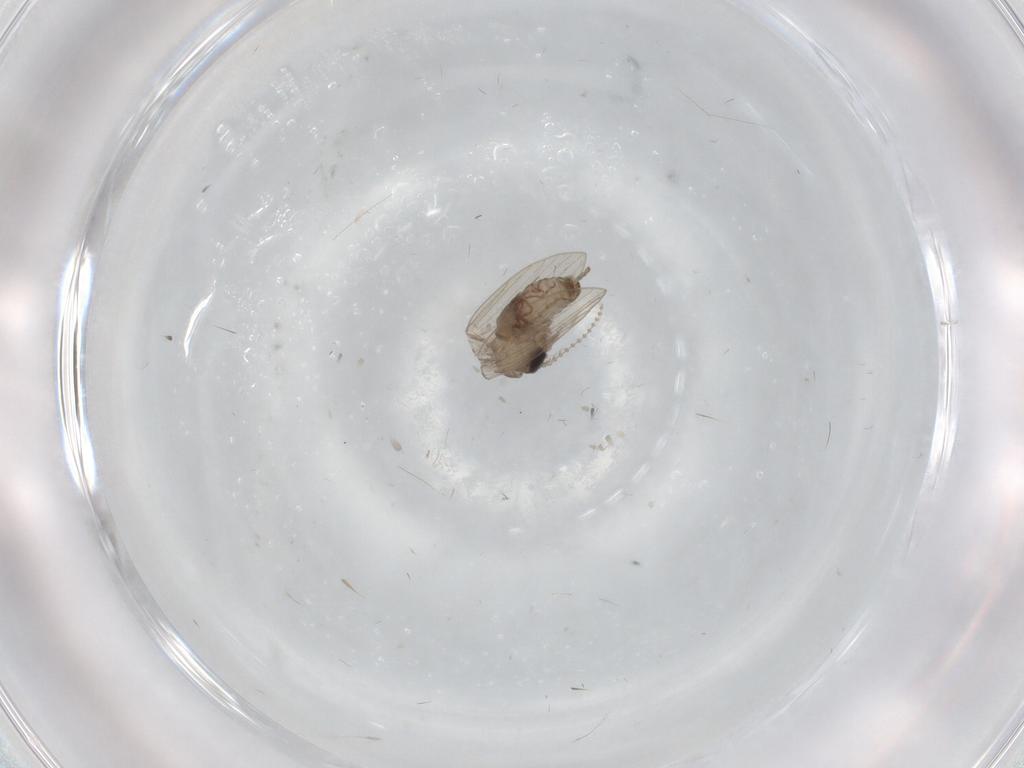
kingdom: Animalia
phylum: Arthropoda
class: Insecta
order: Diptera
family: Psychodidae
